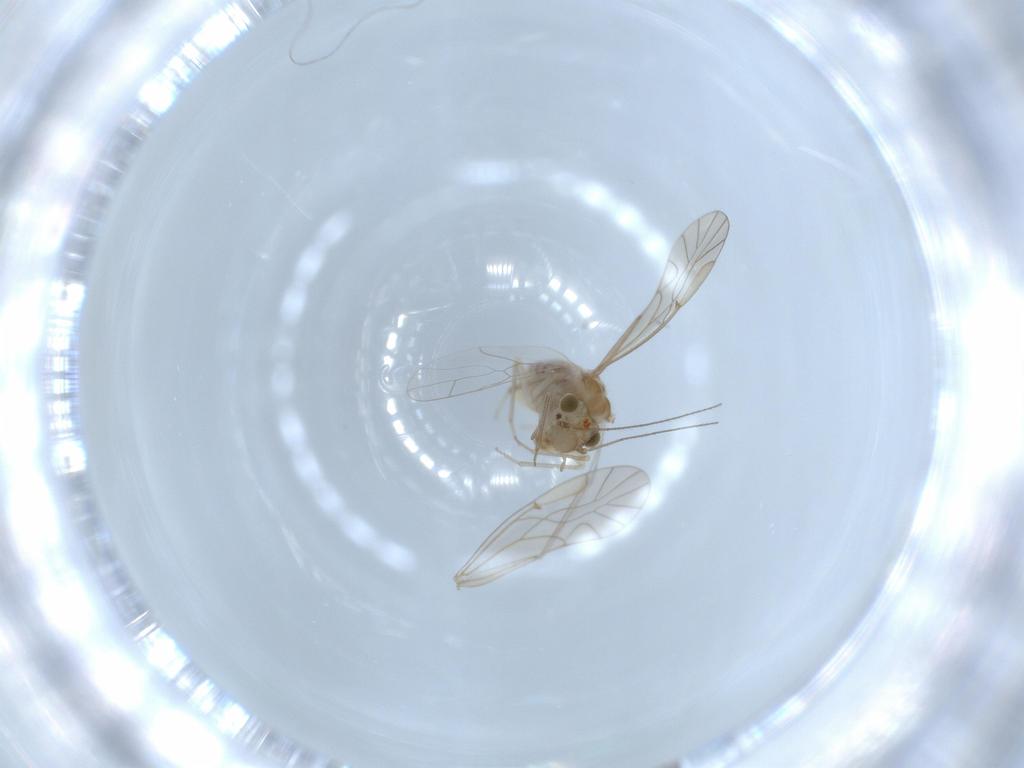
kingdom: Animalia
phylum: Arthropoda
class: Insecta
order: Psocodea
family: Lachesillidae
